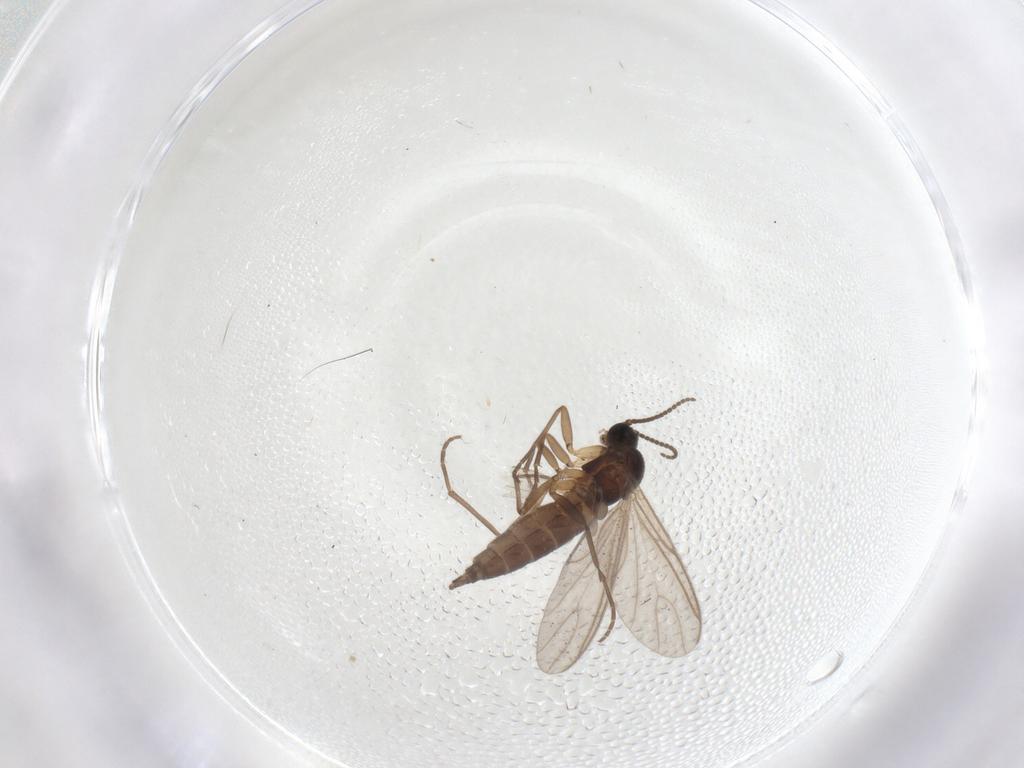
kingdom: Animalia
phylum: Arthropoda
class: Insecta
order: Diptera
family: Sciaridae
